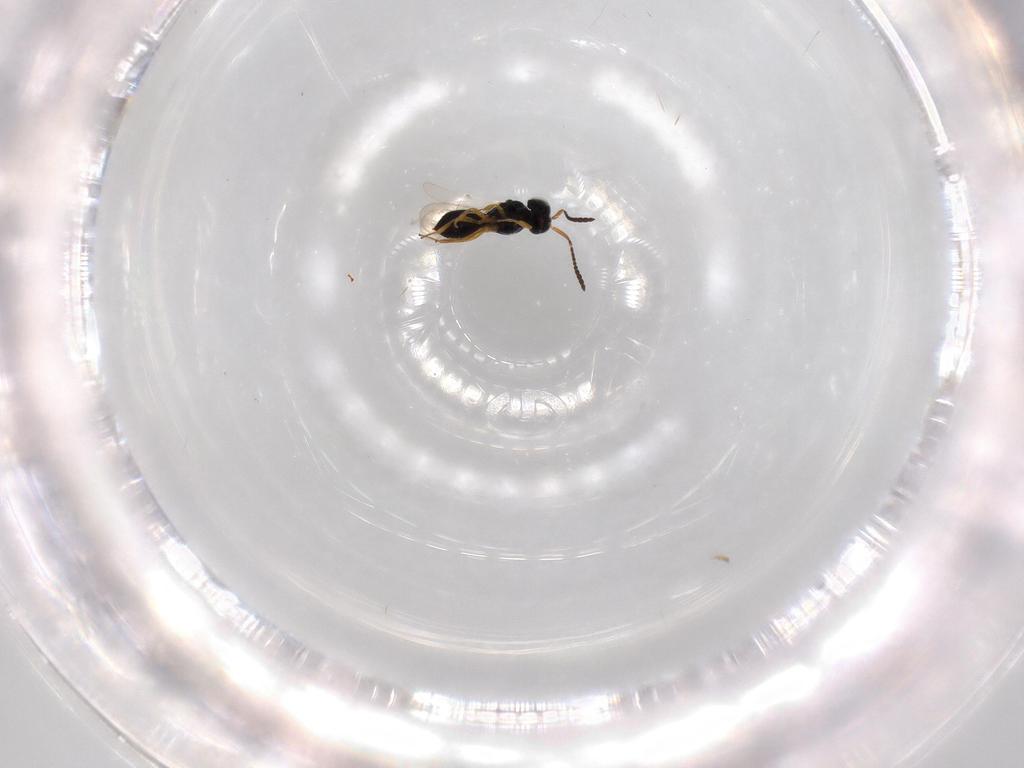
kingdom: Animalia
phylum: Arthropoda
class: Insecta
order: Hymenoptera
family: Scelionidae
